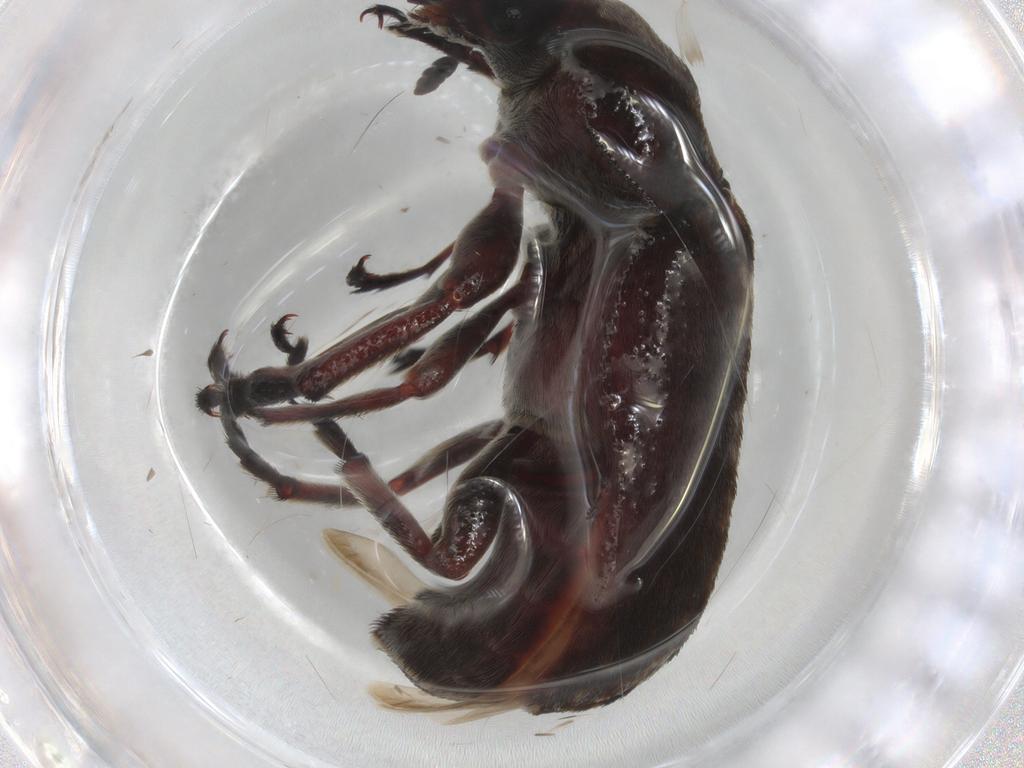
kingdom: Animalia
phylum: Arthropoda
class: Insecta
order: Coleoptera
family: Anthribidae
